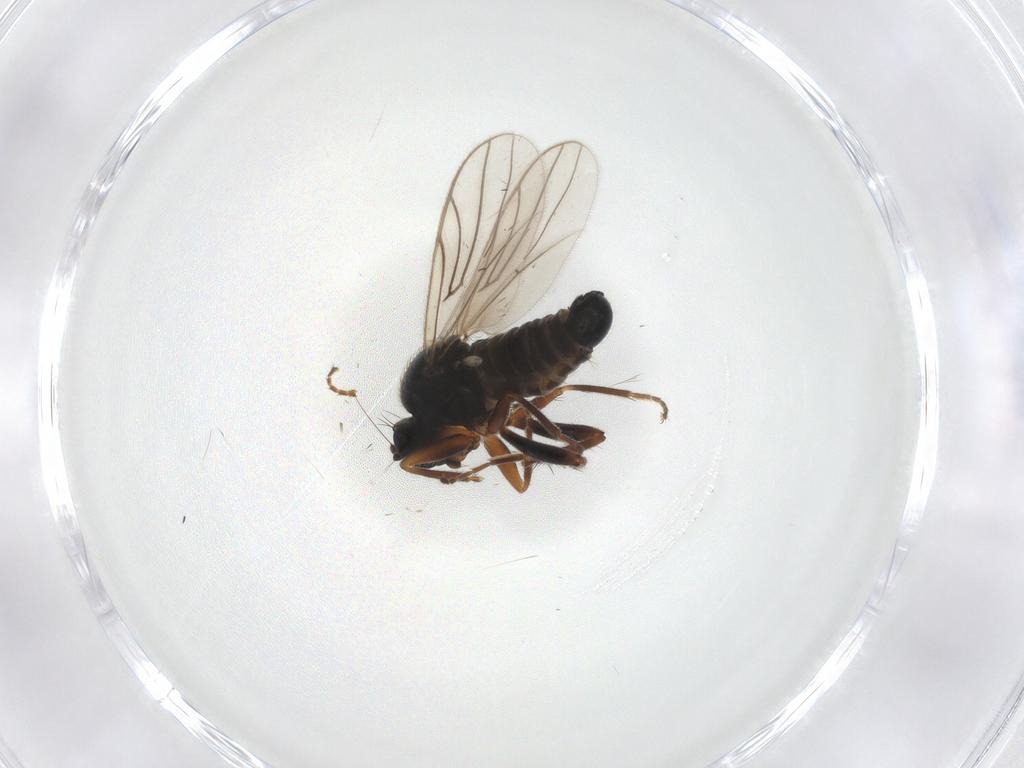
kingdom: Animalia
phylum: Arthropoda
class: Insecta
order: Diptera
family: Hybotidae
